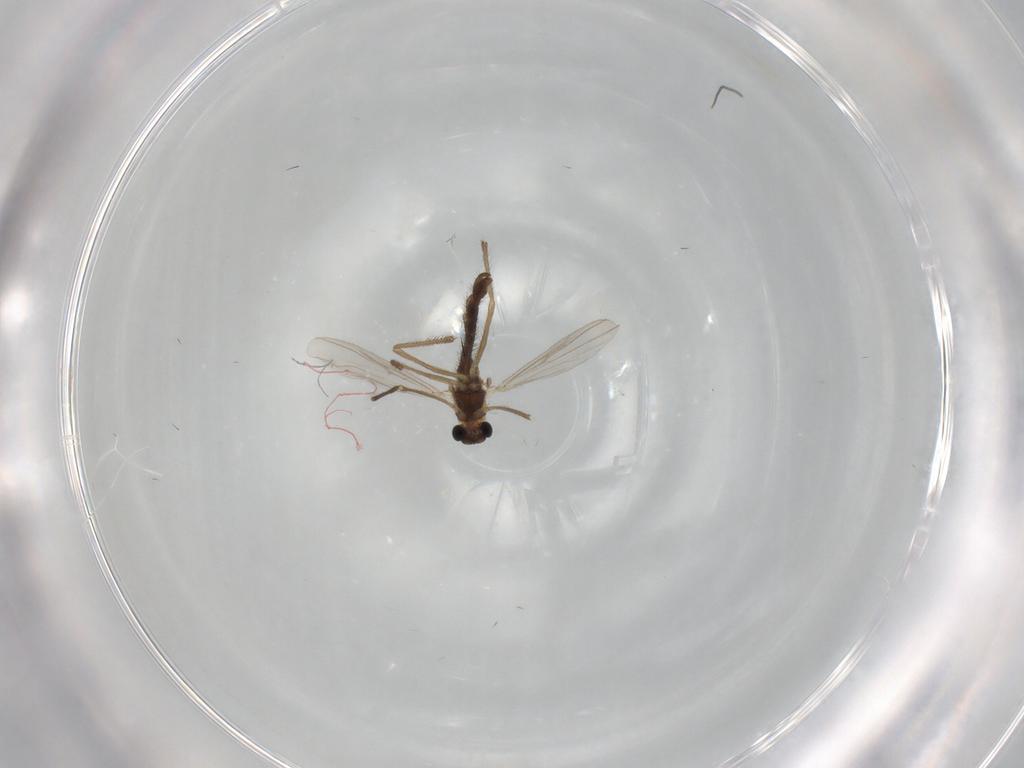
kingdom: Animalia
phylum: Arthropoda
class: Insecta
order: Diptera
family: Chironomidae
